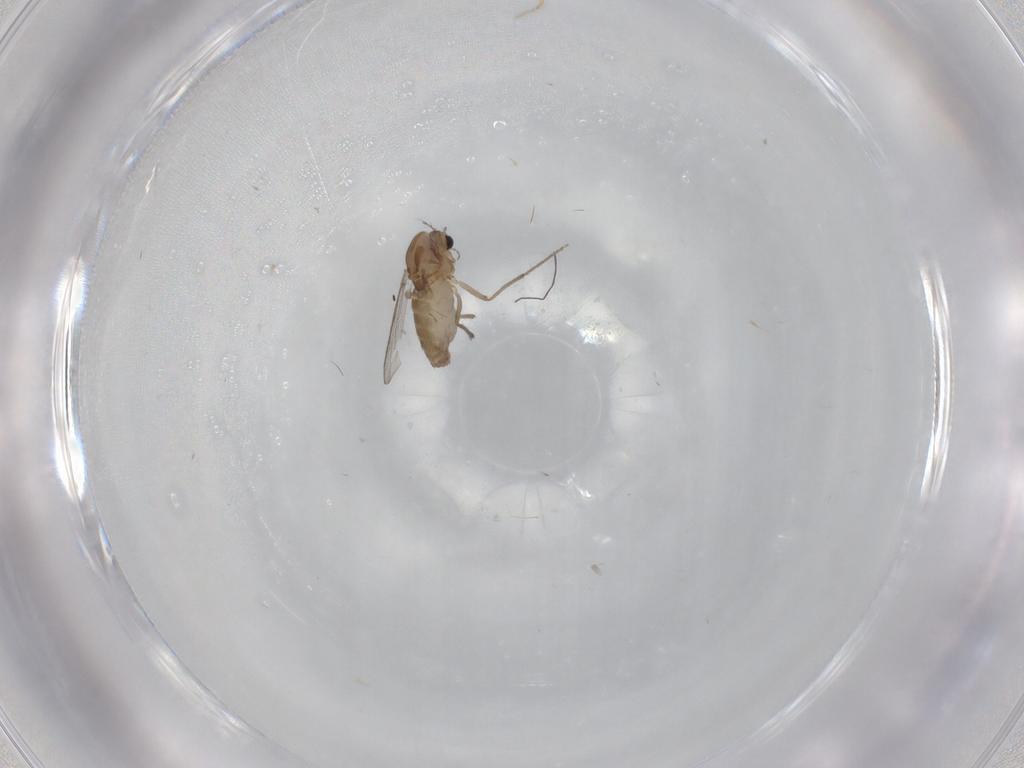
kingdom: Animalia
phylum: Arthropoda
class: Insecta
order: Diptera
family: Chironomidae
